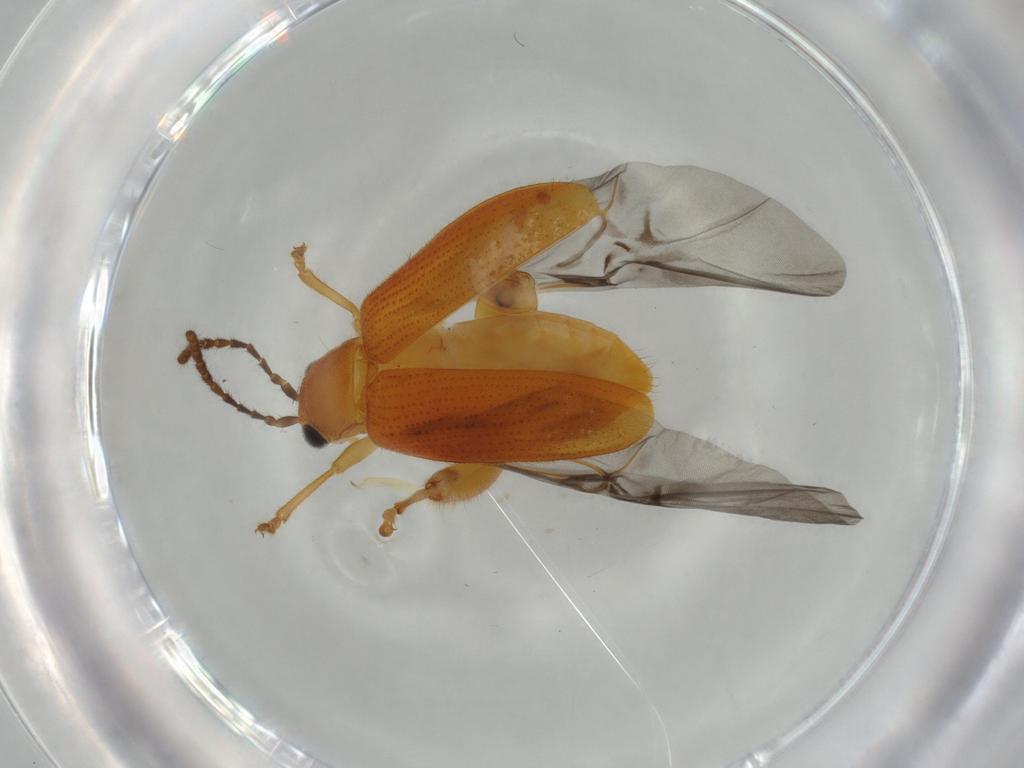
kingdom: Animalia
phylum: Arthropoda
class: Insecta
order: Coleoptera
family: Chrysomelidae
